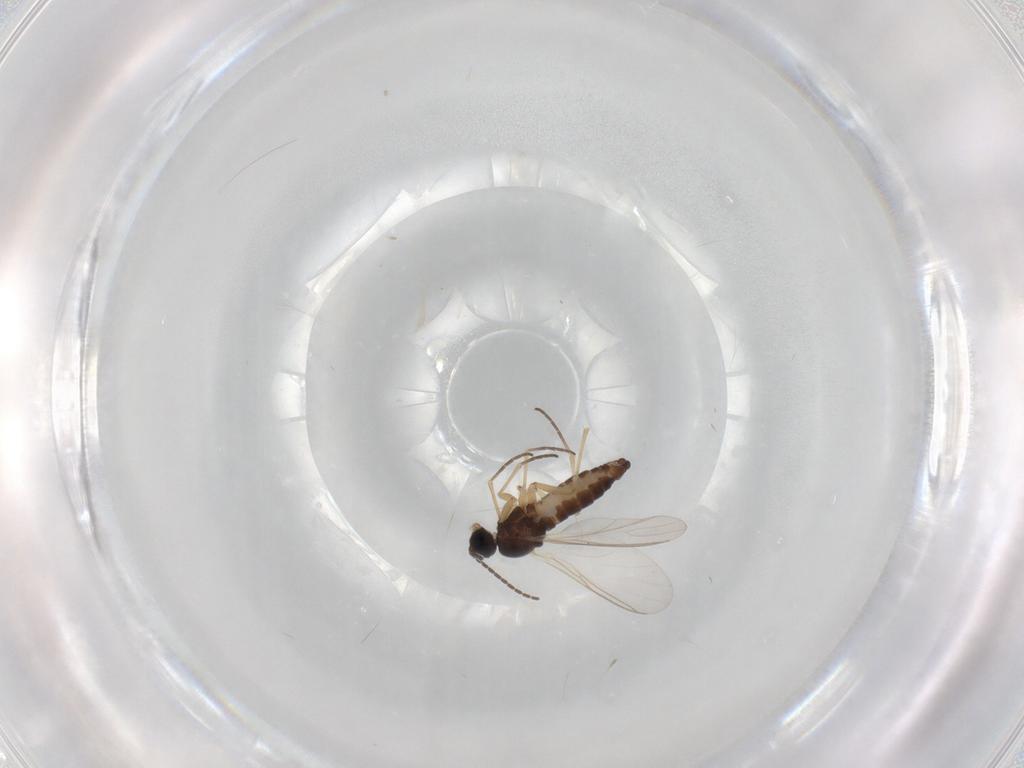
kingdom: Animalia
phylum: Arthropoda
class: Insecta
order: Diptera
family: Sciaridae
